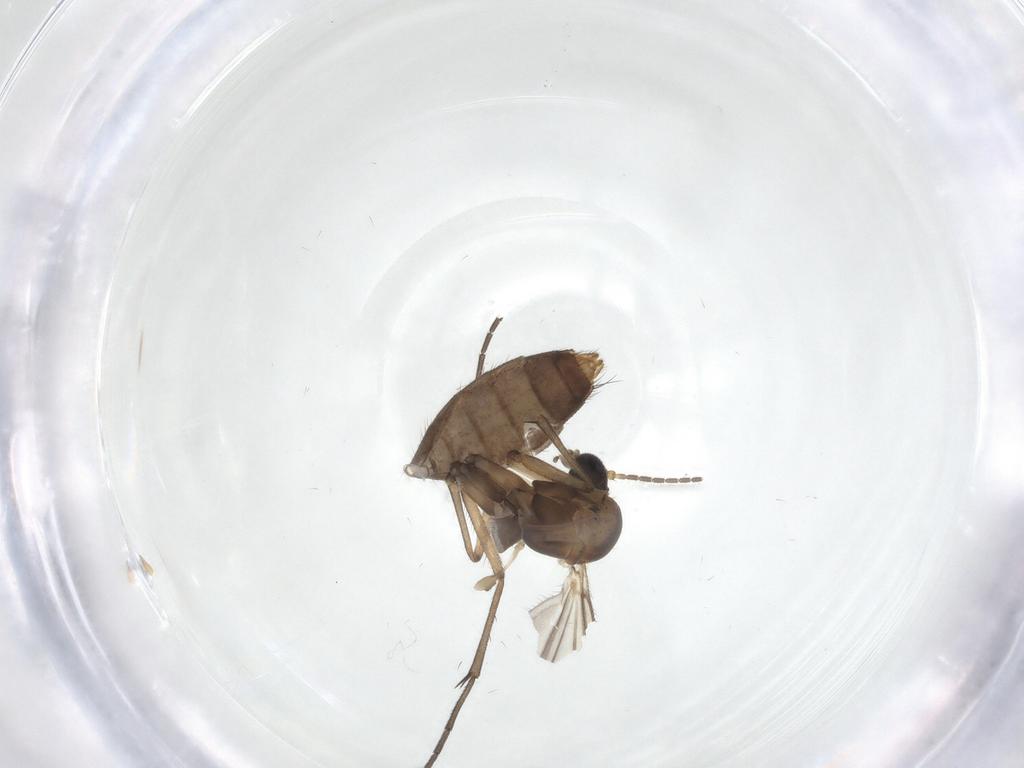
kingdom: Animalia
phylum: Arthropoda
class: Insecta
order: Diptera
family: Mycetophilidae
